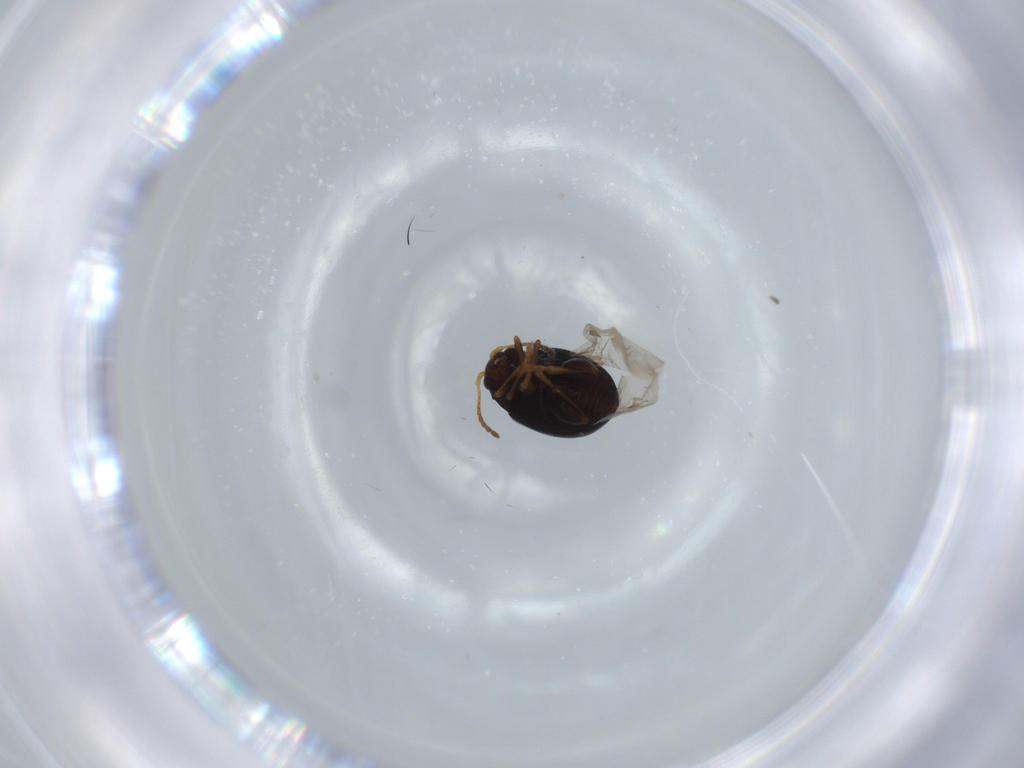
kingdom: Animalia
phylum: Arthropoda
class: Insecta
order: Coleoptera
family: Chrysomelidae
